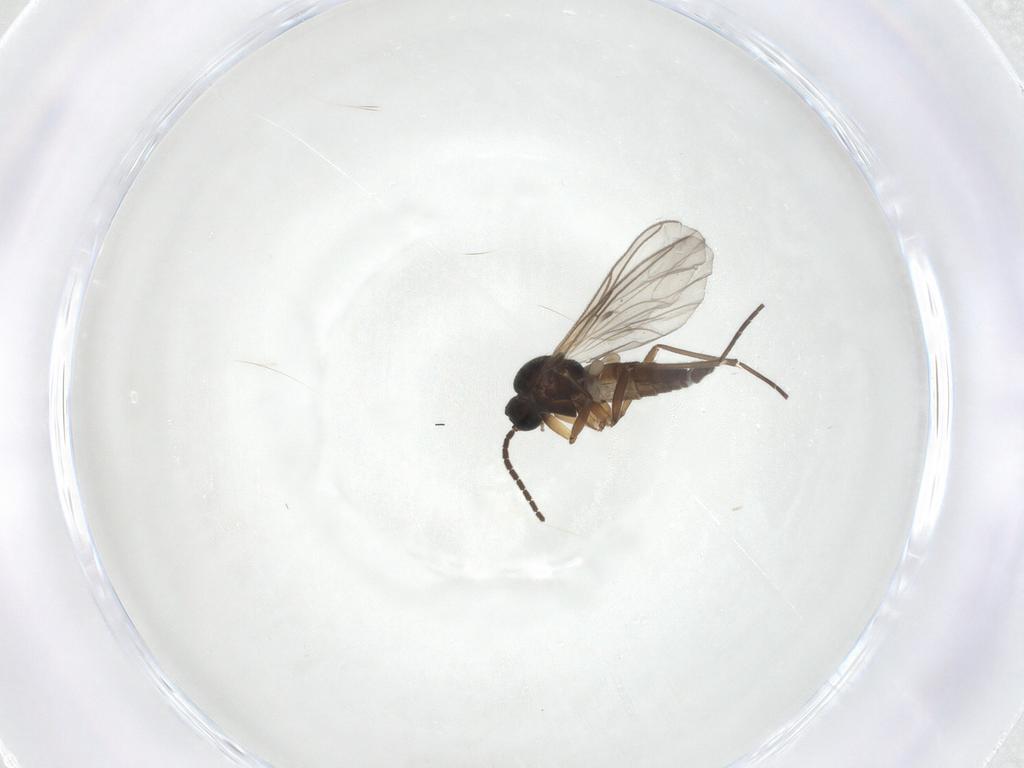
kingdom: Animalia
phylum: Arthropoda
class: Insecta
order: Diptera
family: Sciaridae
